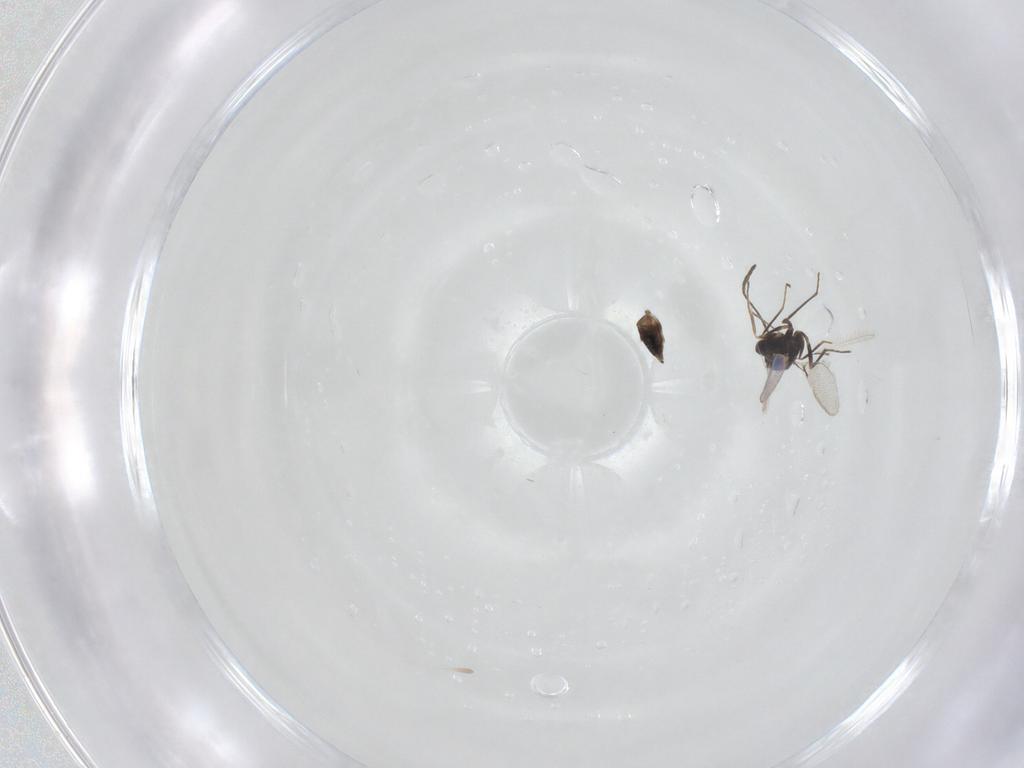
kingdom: Animalia
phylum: Arthropoda
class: Insecta
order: Hymenoptera
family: Mymaridae
